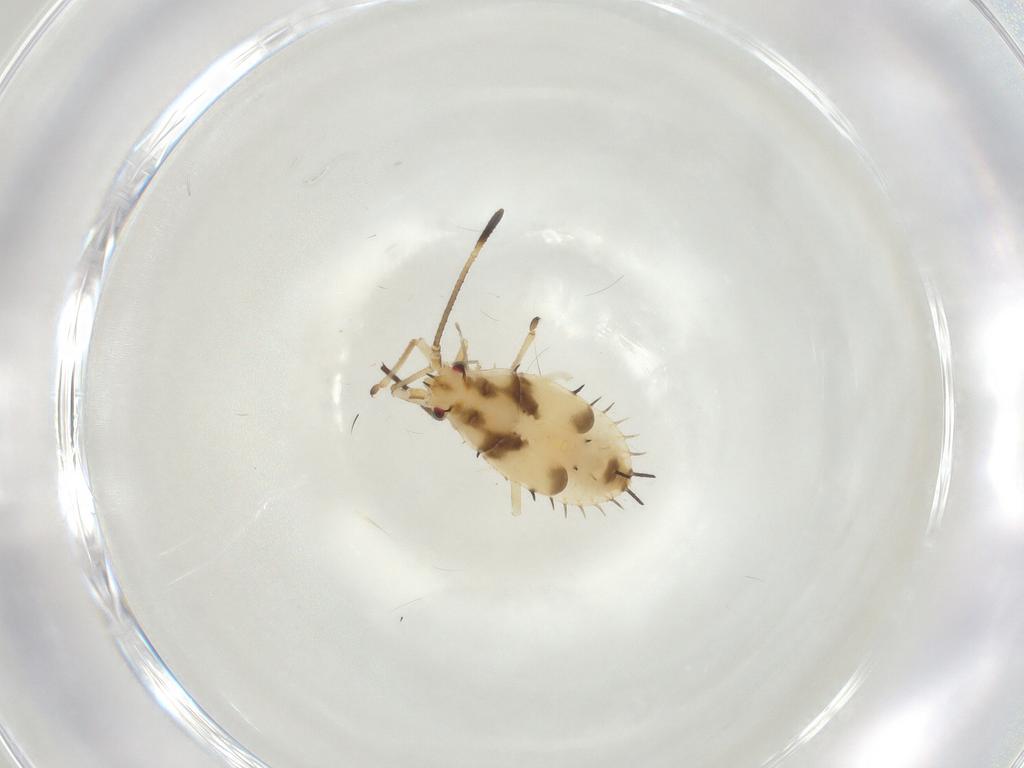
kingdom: Animalia
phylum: Arthropoda
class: Insecta
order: Hemiptera
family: Tingidae
